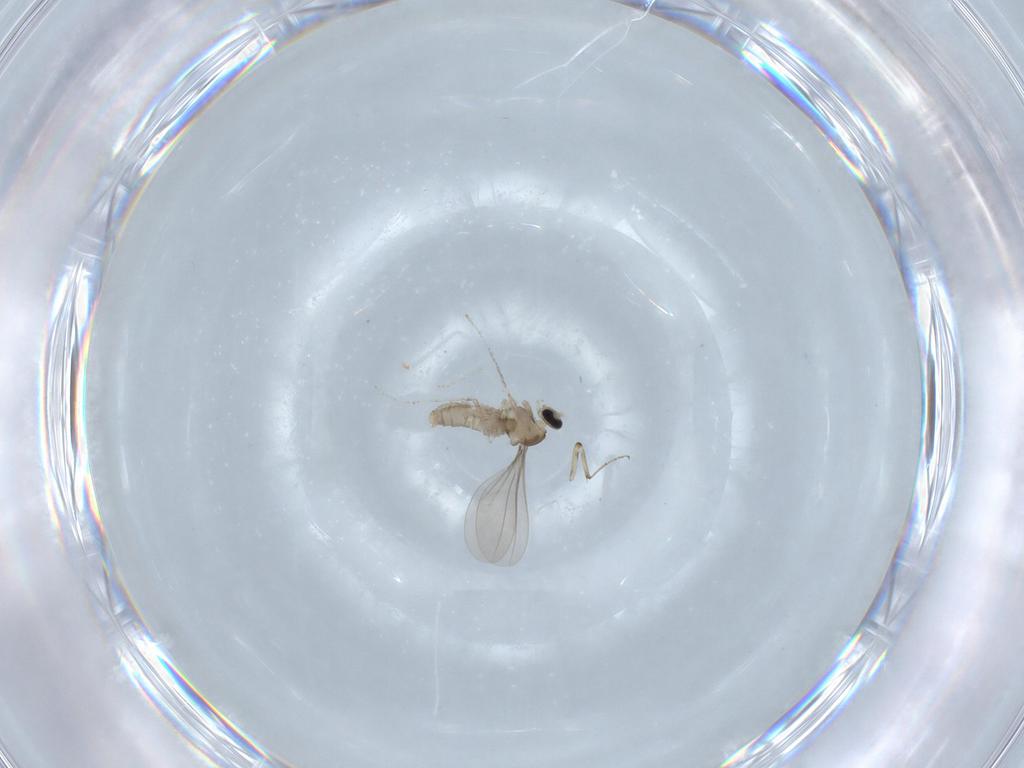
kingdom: Animalia
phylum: Arthropoda
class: Insecta
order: Diptera
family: Cecidomyiidae
